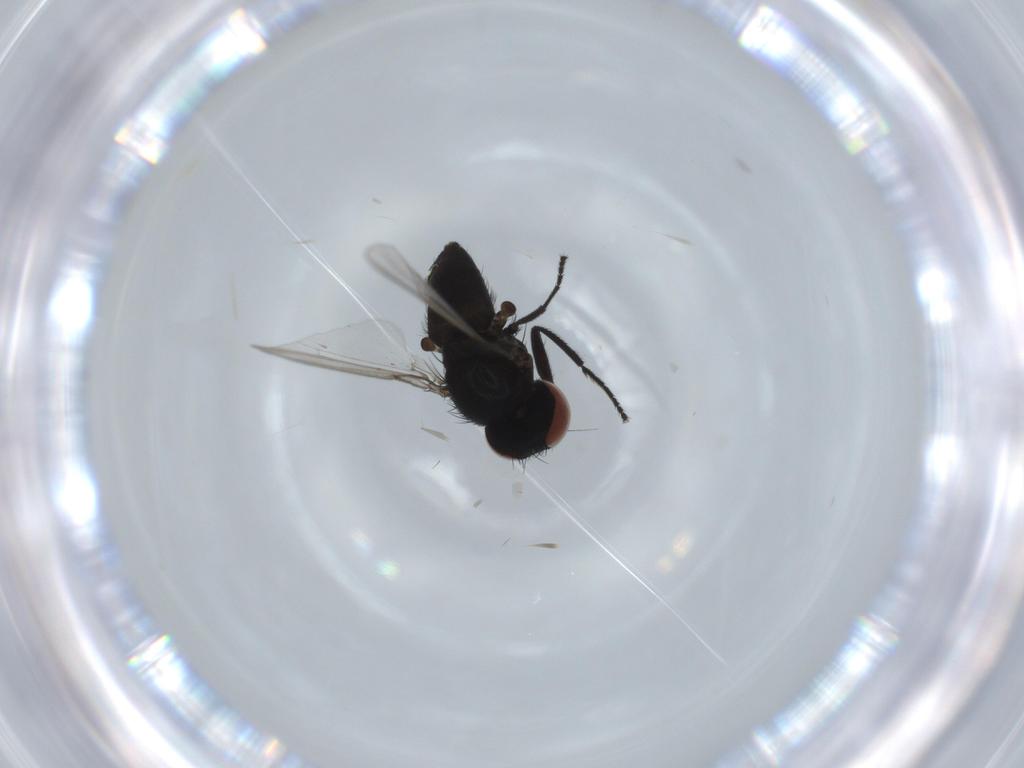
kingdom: Animalia
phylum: Arthropoda
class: Insecta
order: Diptera
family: Milichiidae
